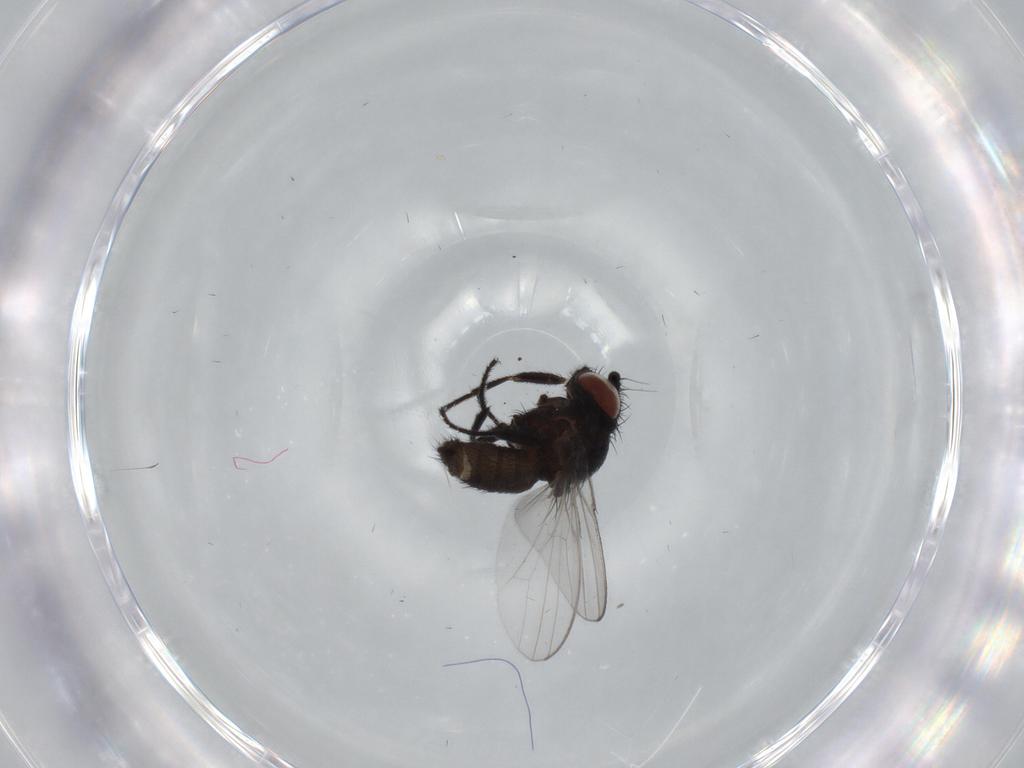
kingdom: Animalia
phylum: Arthropoda
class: Insecta
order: Diptera
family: Milichiidae
